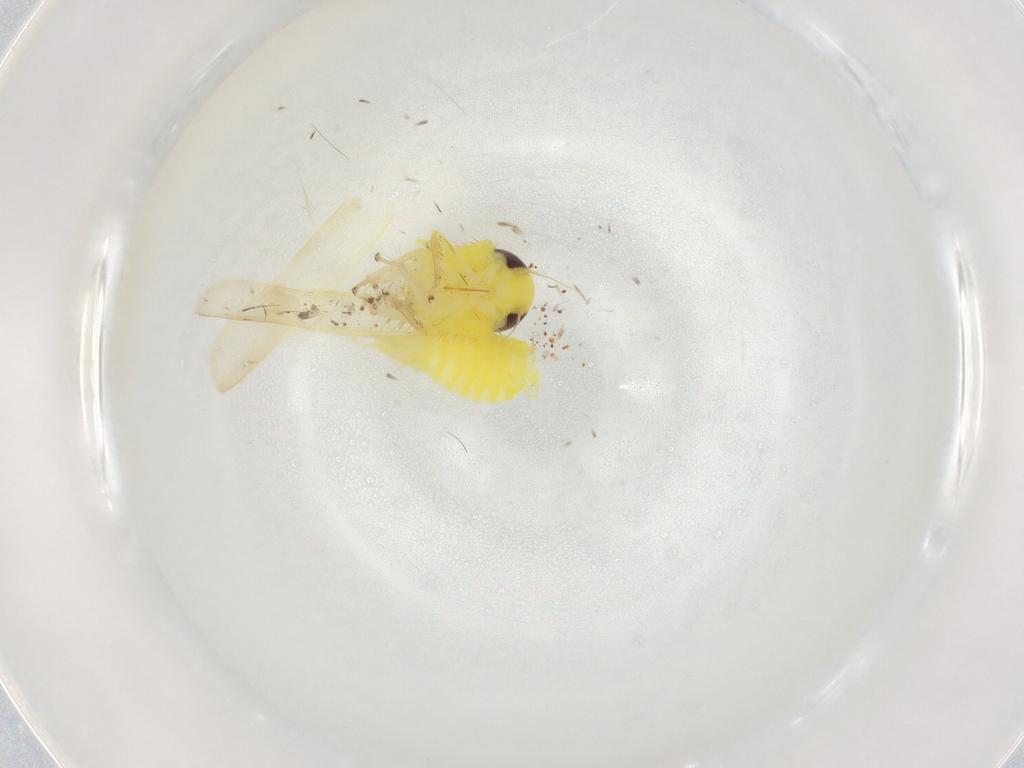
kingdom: Animalia
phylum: Arthropoda
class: Insecta
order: Hemiptera
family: Cicadellidae
